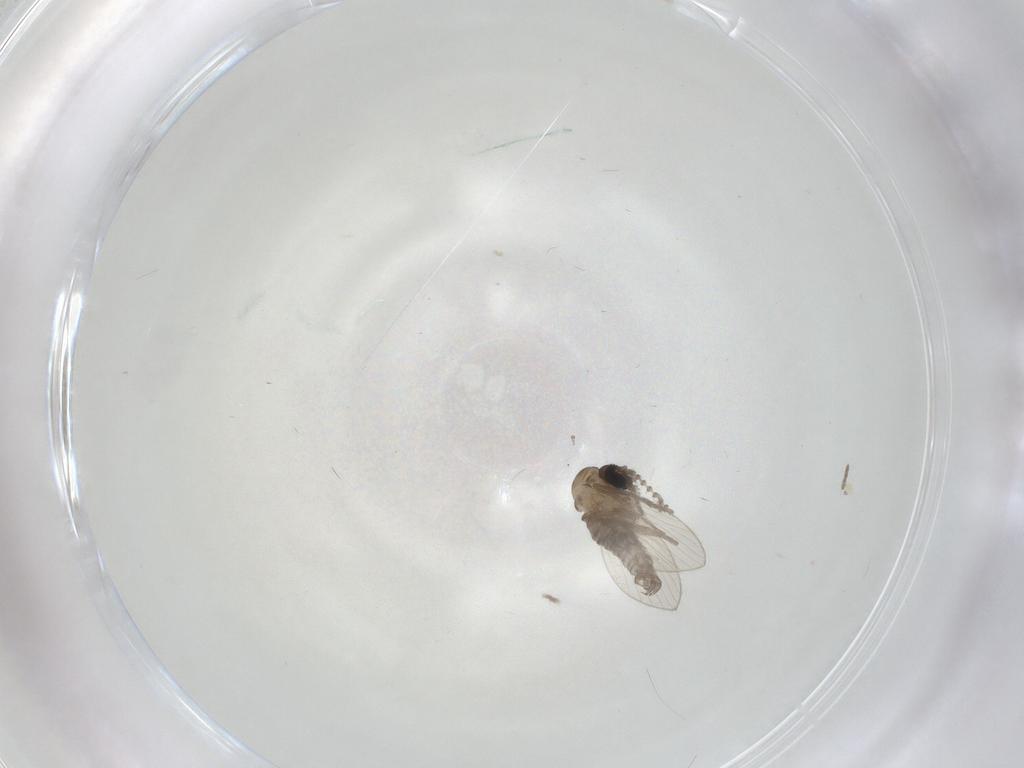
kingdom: Animalia
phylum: Arthropoda
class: Insecta
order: Diptera
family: Psychodidae
